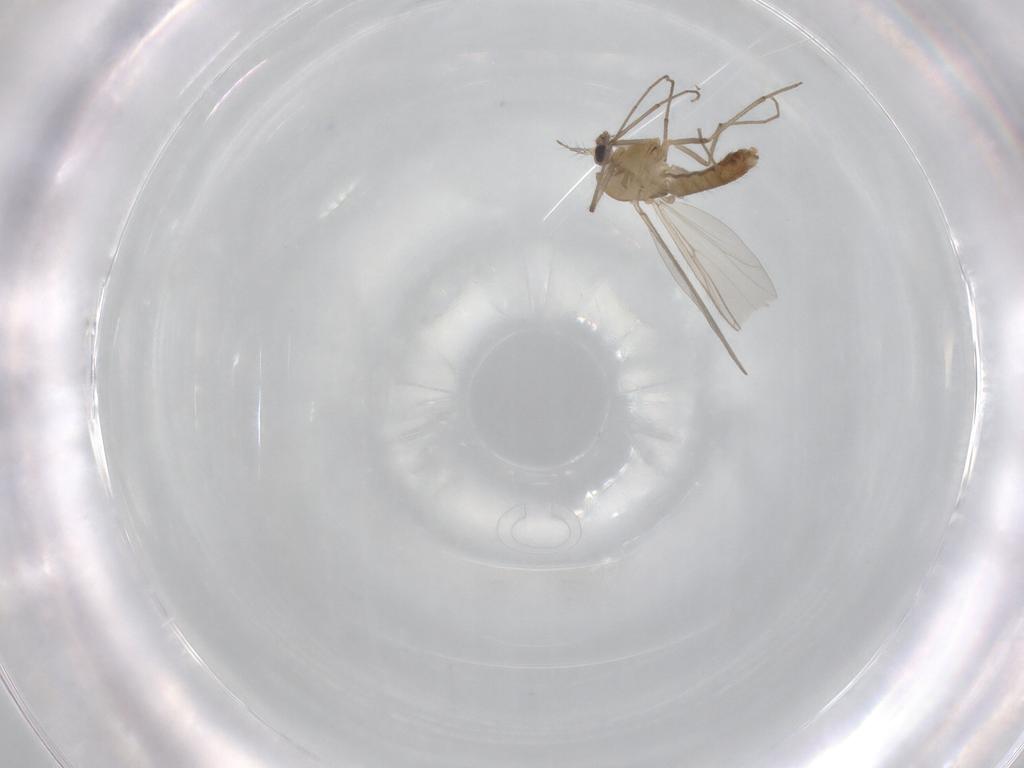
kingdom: Animalia
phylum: Arthropoda
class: Insecta
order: Diptera
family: Chironomidae
